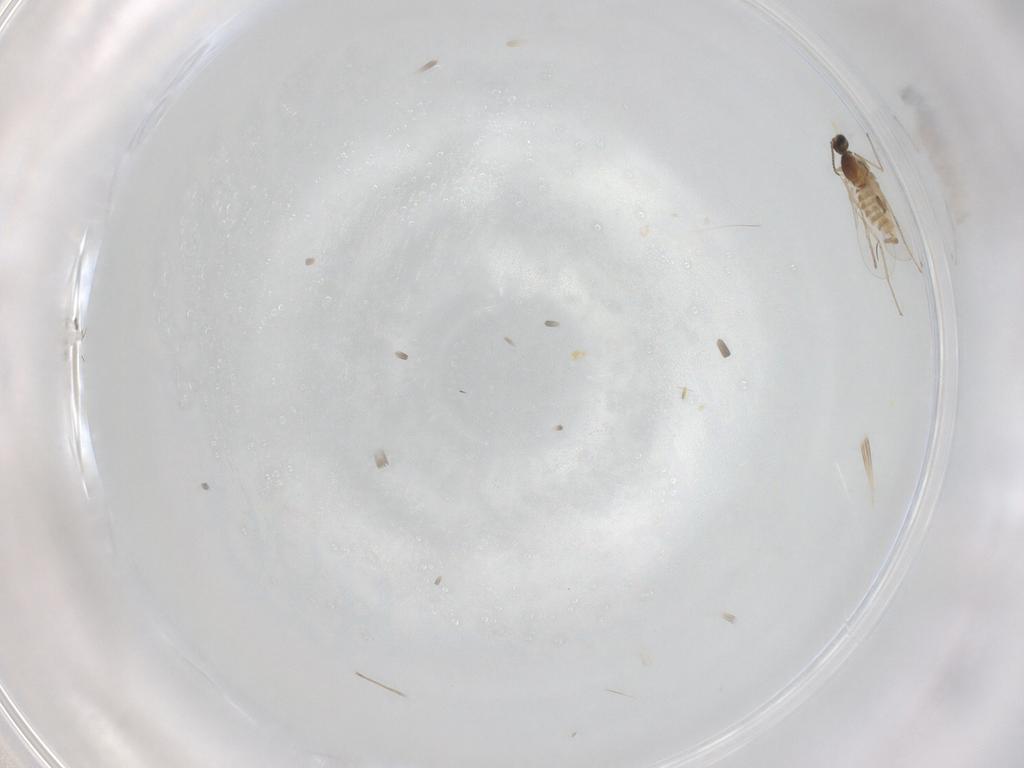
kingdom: Animalia
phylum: Arthropoda
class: Insecta
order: Diptera
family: Cecidomyiidae
